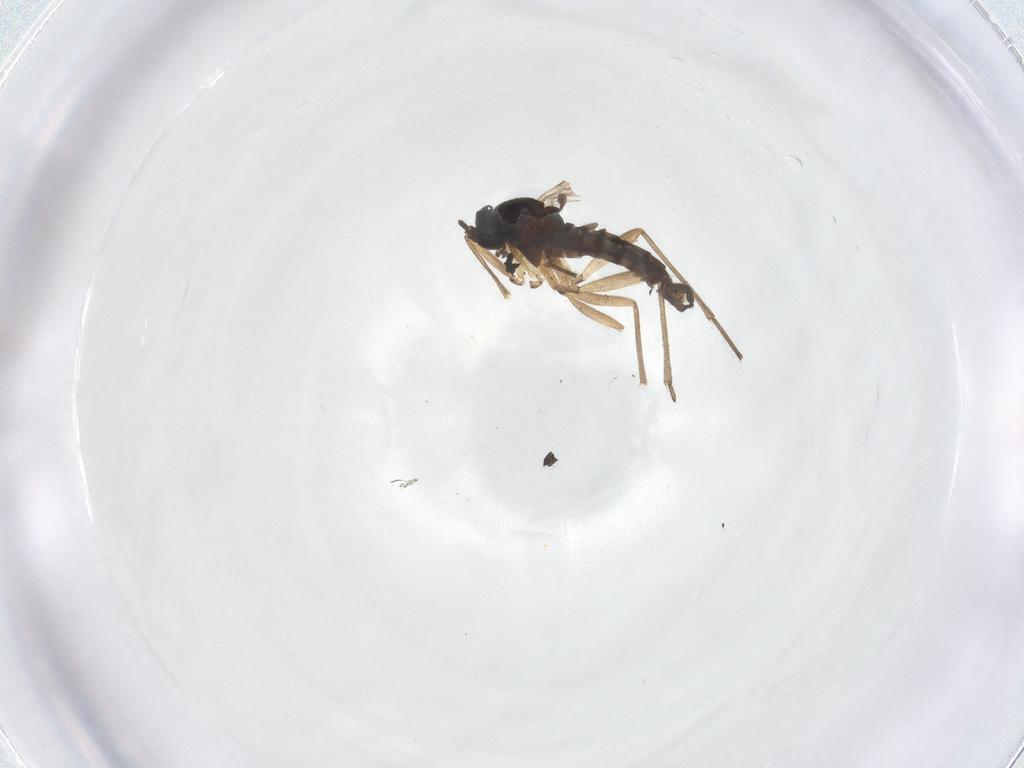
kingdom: Animalia
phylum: Arthropoda
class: Insecta
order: Diptera
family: Sciaridae
